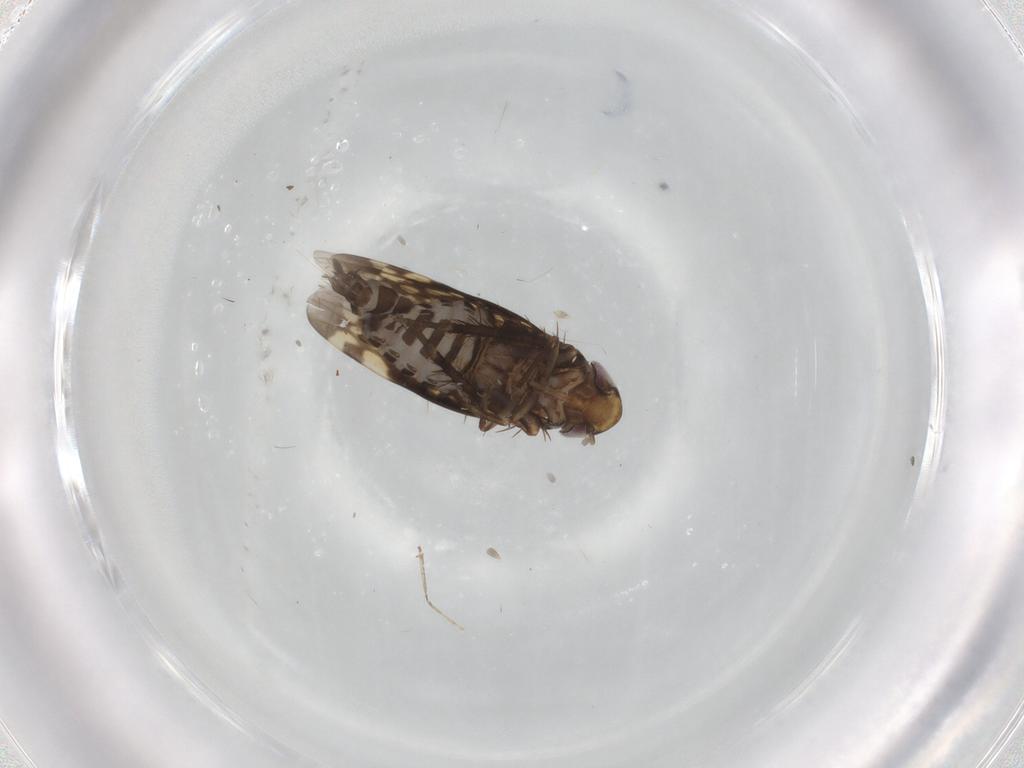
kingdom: Animalia
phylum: Arthropoda
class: Insecta
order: Hemiptera
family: Cicadellidae
